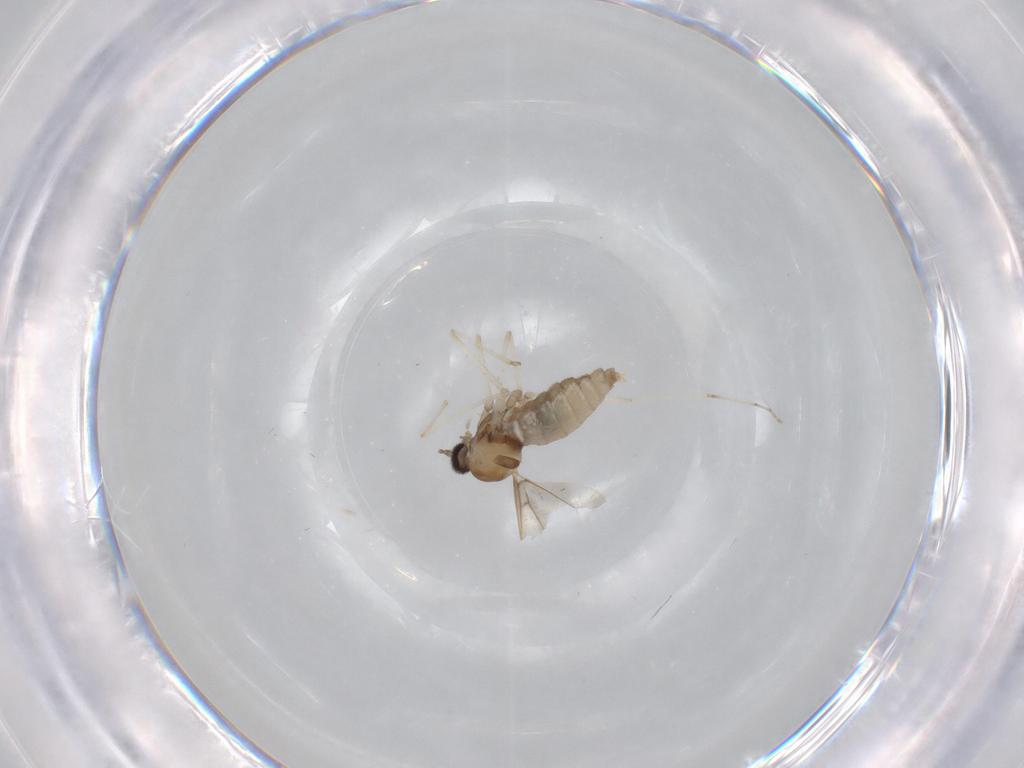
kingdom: Animalia
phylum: Arthropoda
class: Insecta
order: Diptera
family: Cecidomyiidae
